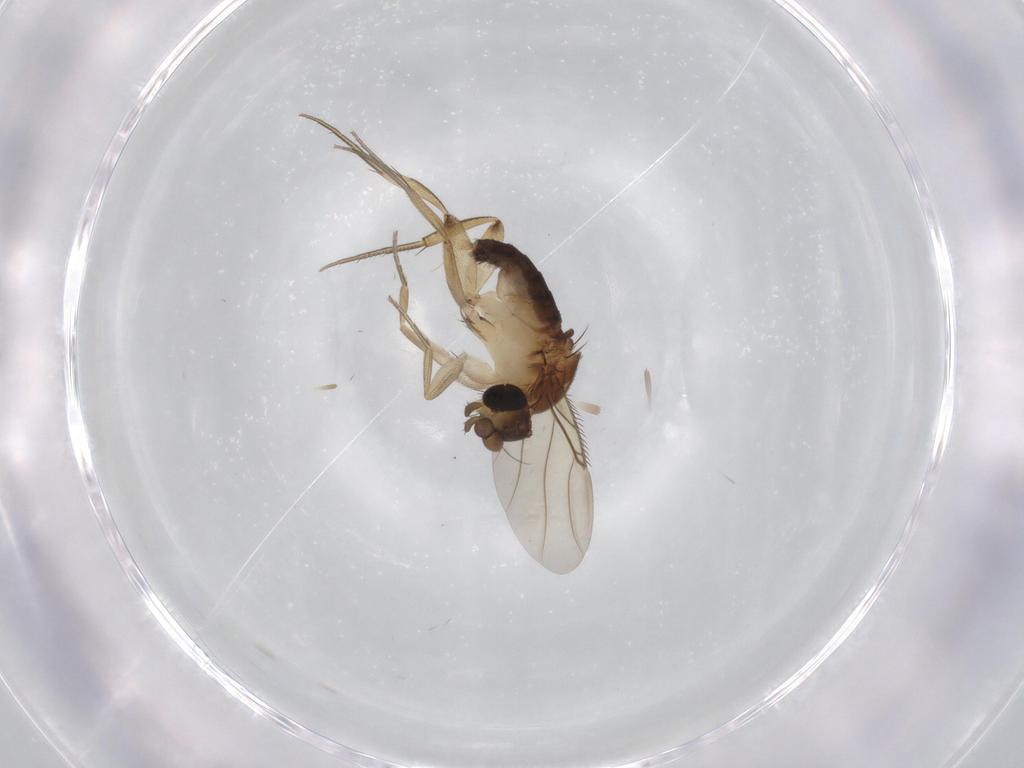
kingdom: Animalia
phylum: Arthropoda
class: Insecta
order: Diptera
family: Phoridae
